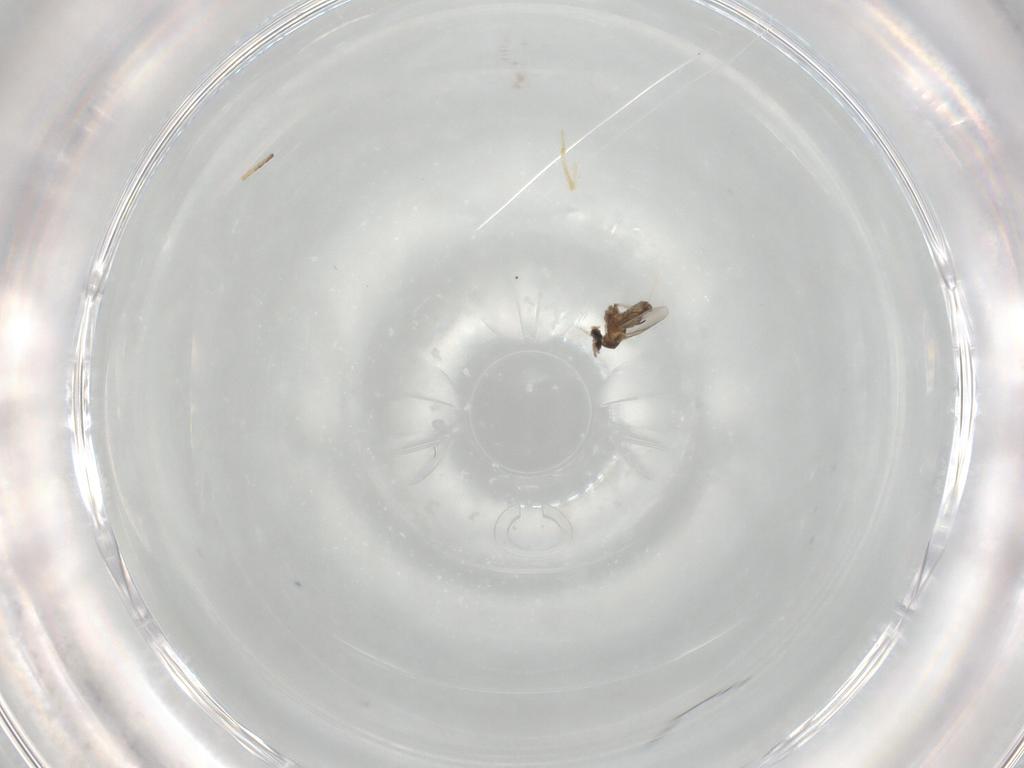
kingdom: Animalia
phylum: Arthropoda
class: Insecta
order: Diptera
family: Cecidomyiidae
